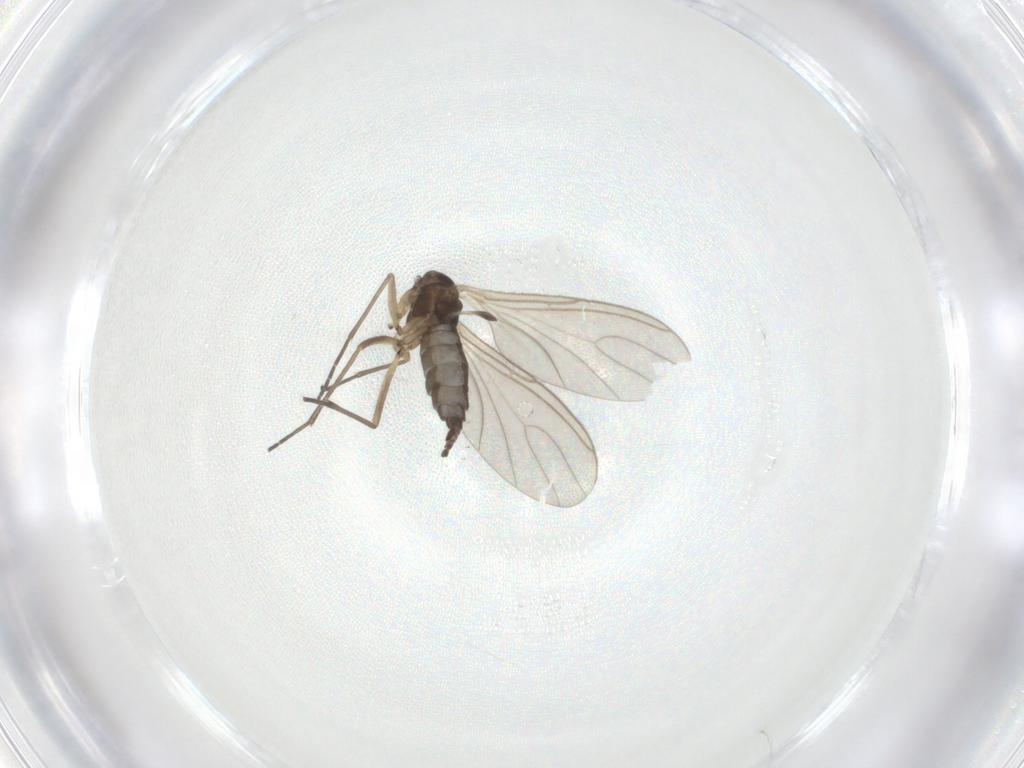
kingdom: Animalia
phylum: Arthropoda
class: Insecta
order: Diptera
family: Sciaridae
